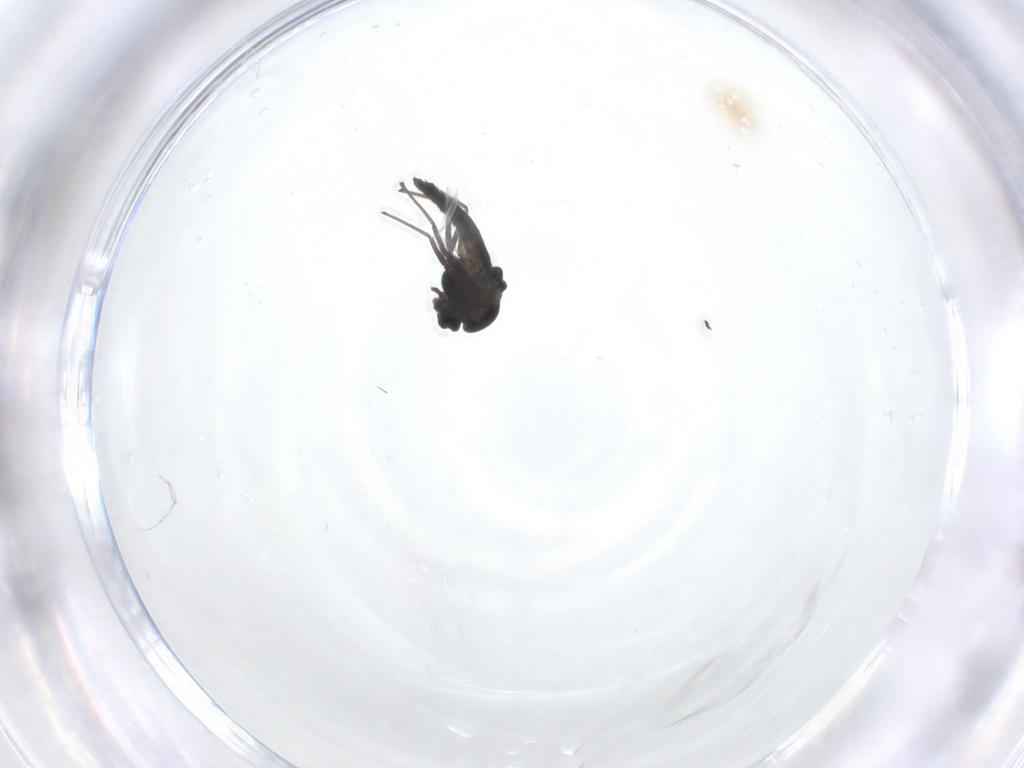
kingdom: Animalia
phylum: Arthropoda
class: Insecta
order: Diptera
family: Chironomidae
